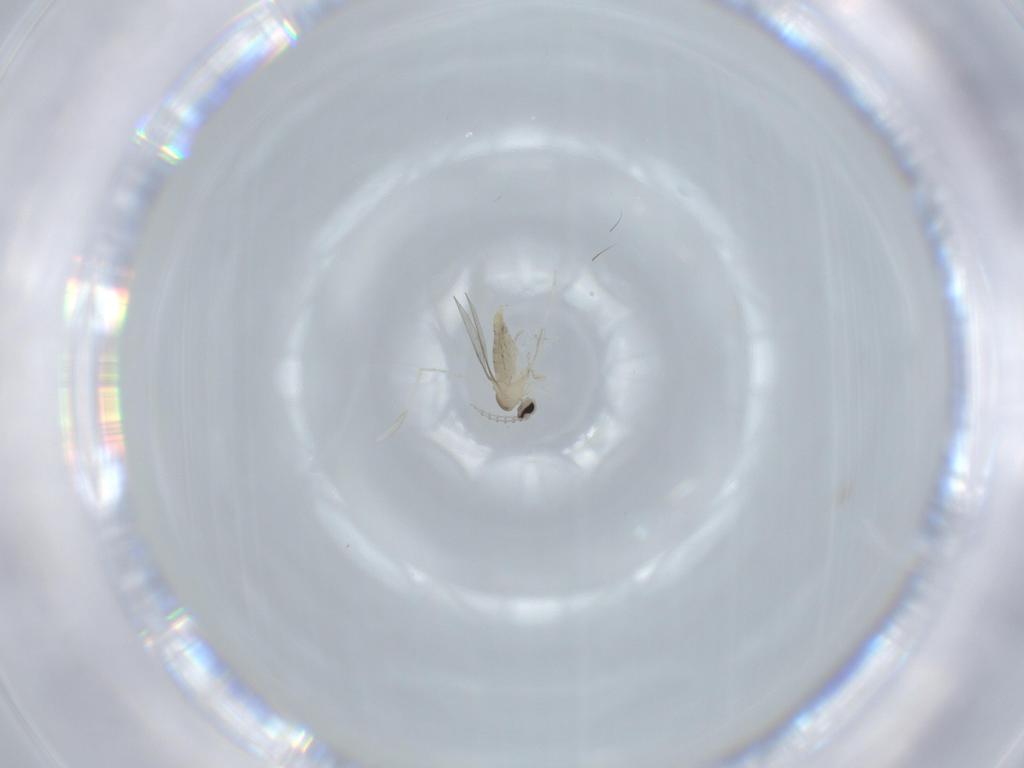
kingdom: Animalia
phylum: Arthropoda
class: Insecta
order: Diptera
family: Cecidomyiidae
